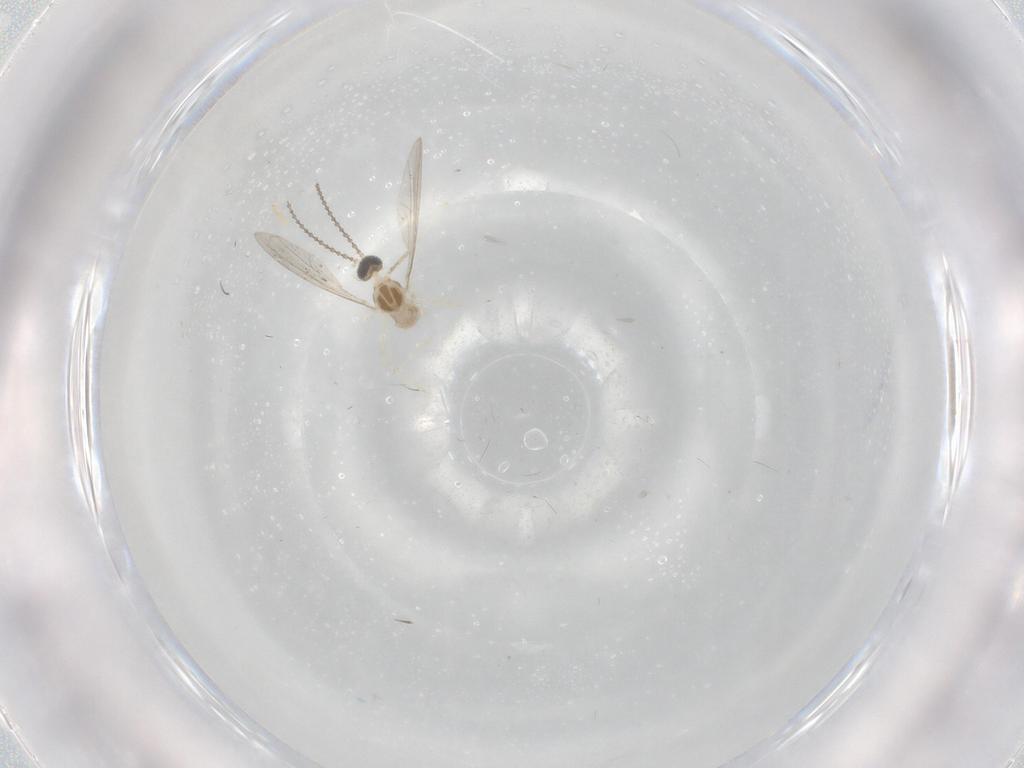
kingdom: Animalia
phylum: Arthropoda
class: Insecta
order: Diptera
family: Cecidomyiidae
